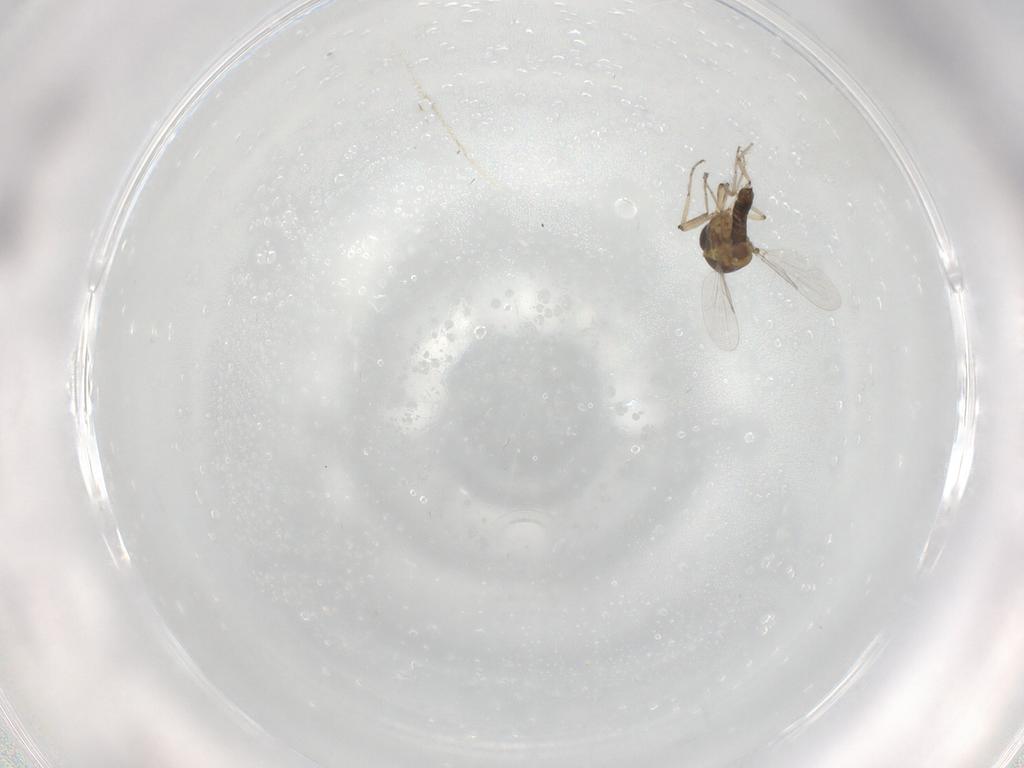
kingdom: Animalia
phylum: Arthropoda
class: Insecta
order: Diptera
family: Ceratopogonidae
